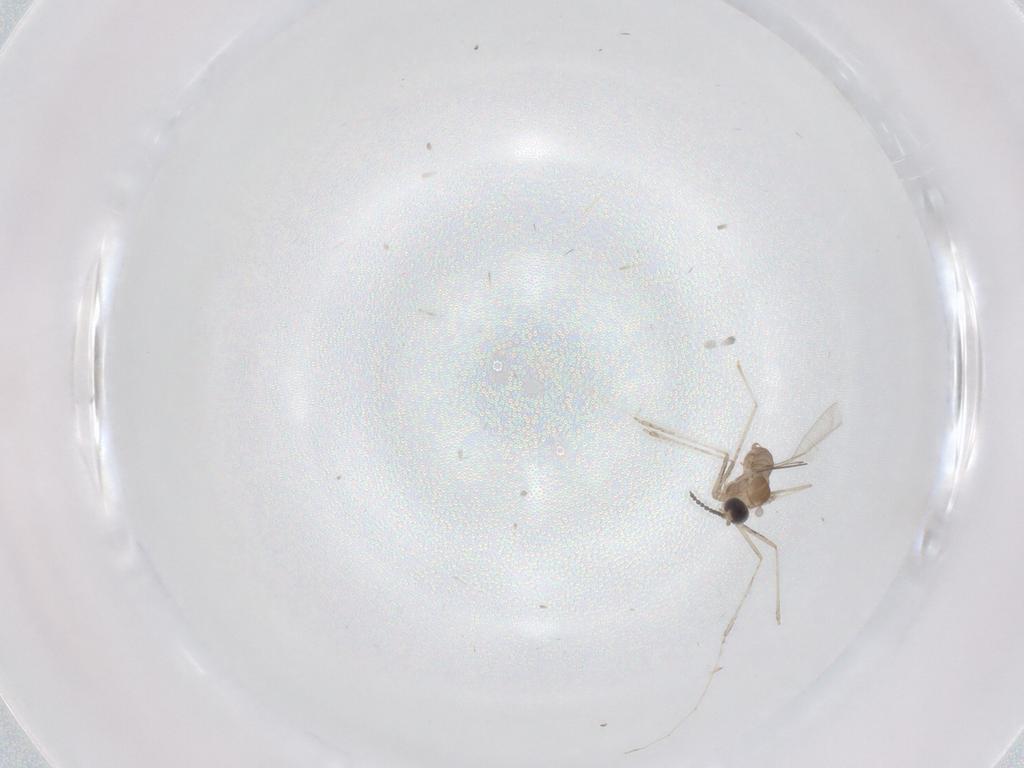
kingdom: Animalia
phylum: Arthropoda
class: Insecta
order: Diptera
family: Cecidomyiidae
